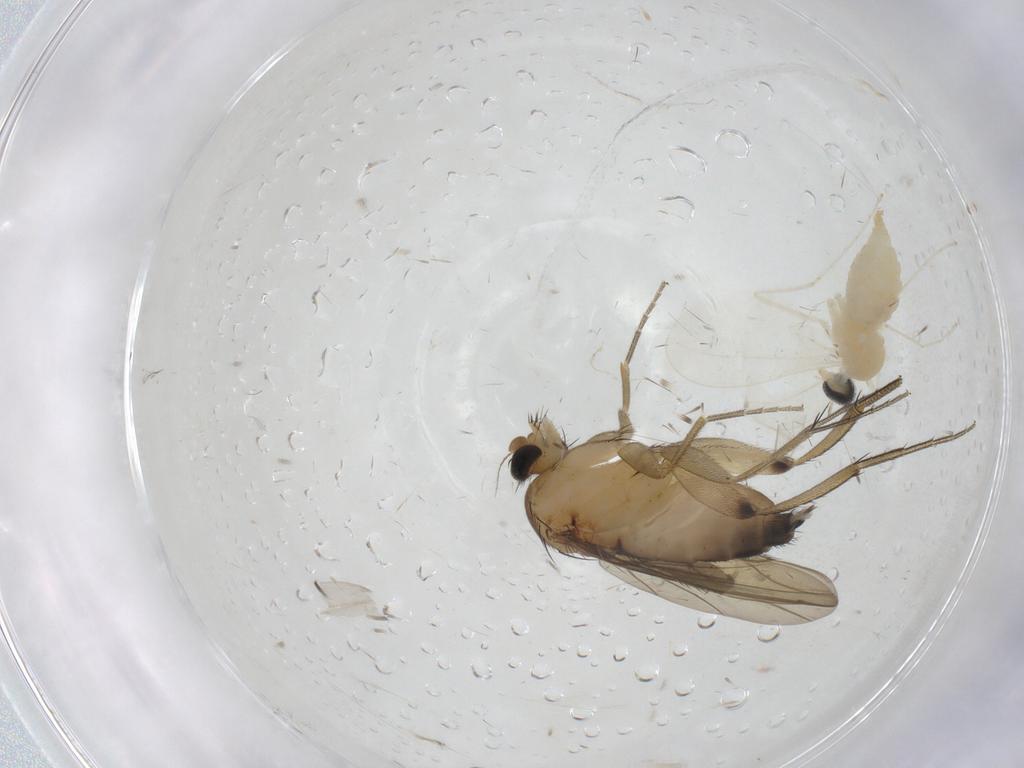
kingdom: Animalia
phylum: Arthropoda
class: Insecta
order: Diptera
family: Cecidomyiidae
